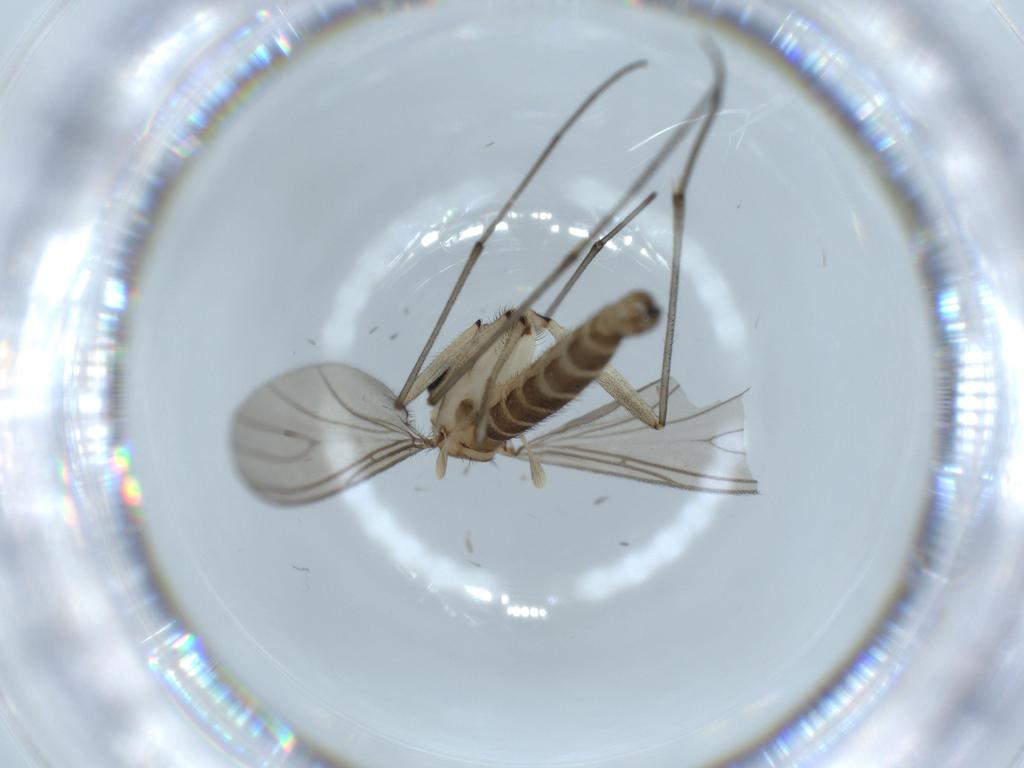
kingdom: Animalia
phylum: Arthropoda
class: Insecta
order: Diptera
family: Sciaridae
